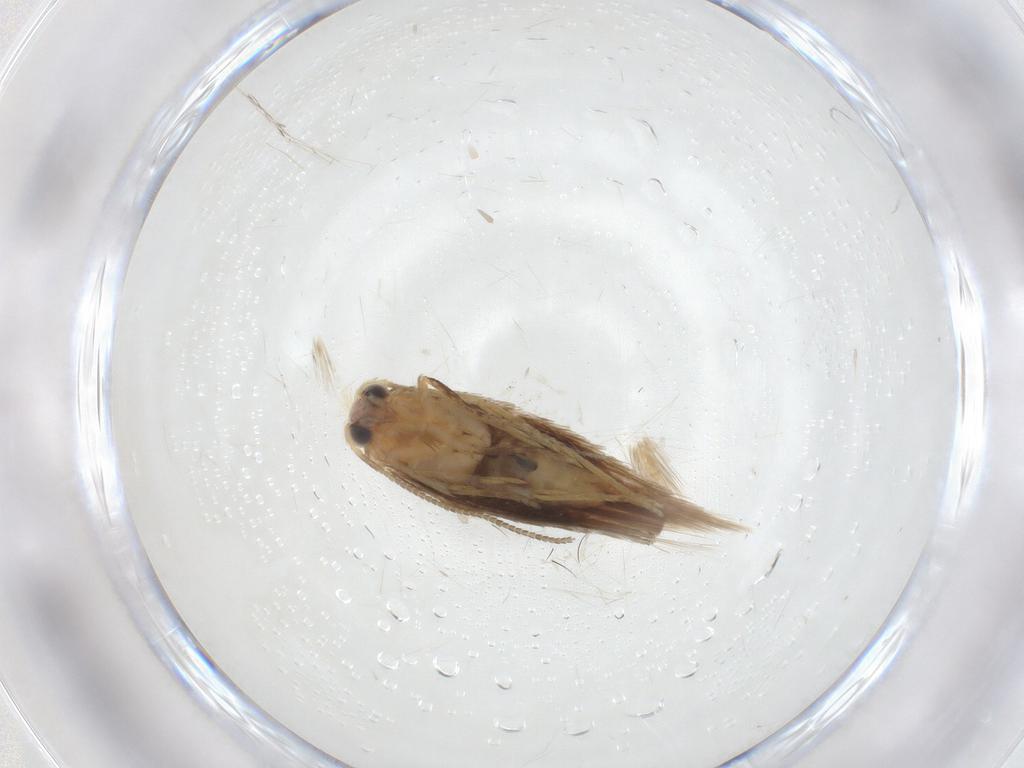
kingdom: Animalia
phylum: Arthropoda
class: Insecta
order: Lepidoptera
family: Nepticulidae
